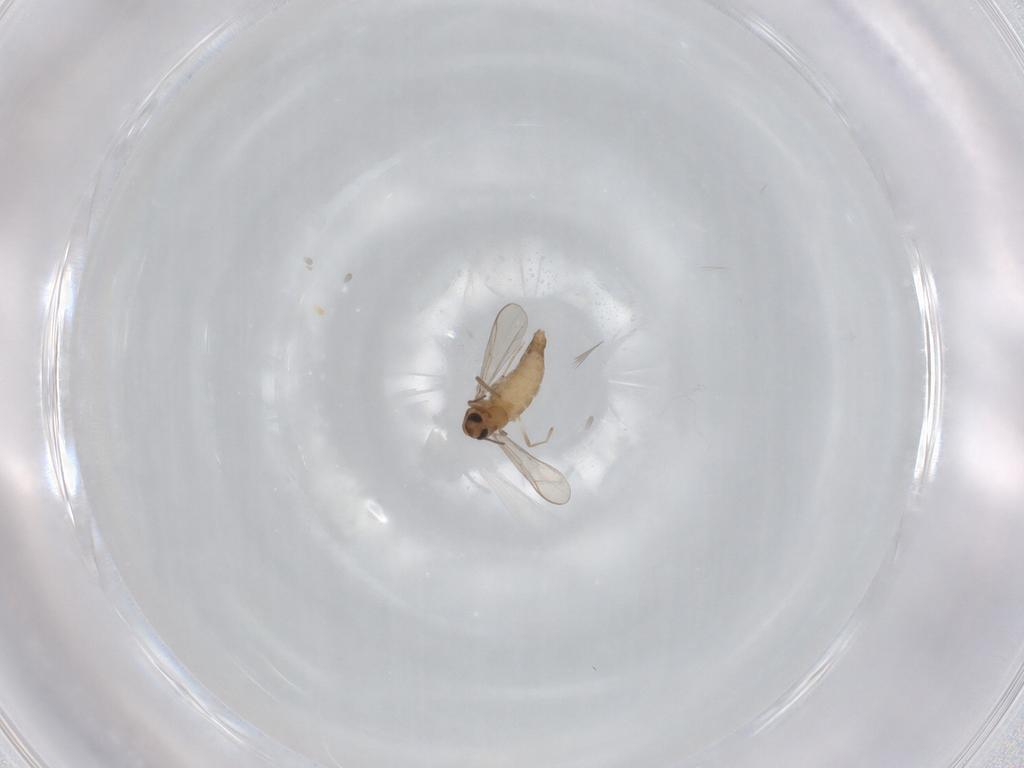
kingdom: Animalia
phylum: Arthropoda
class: Insecta
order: Diptera
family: Chironomidae
